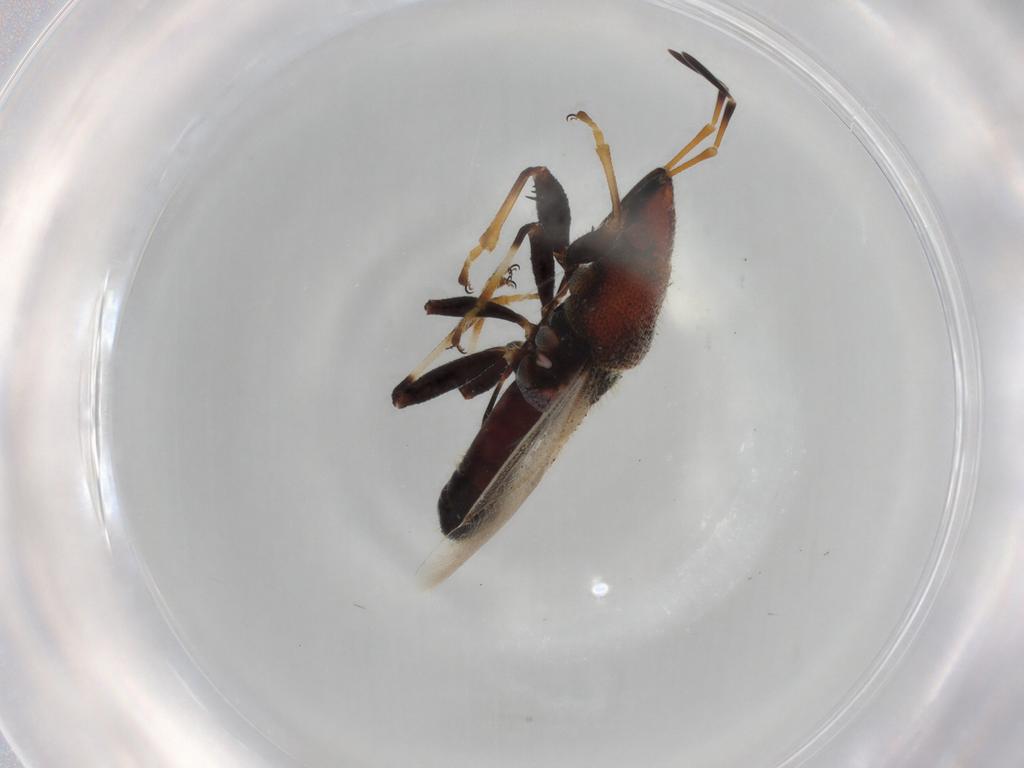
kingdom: Animalia
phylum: Arthropoda
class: Insecta
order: Hemiptera
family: Oxycarenidae
